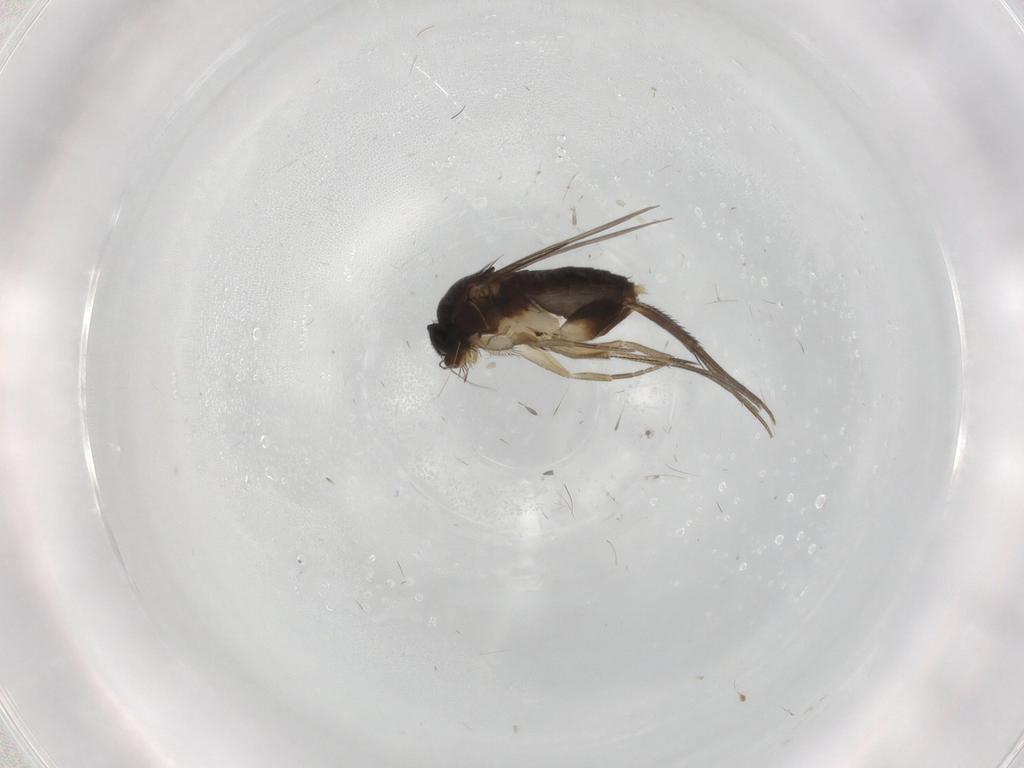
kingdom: Animalia
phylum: Arthropoda
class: Insecta
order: Diptera
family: Phoridae
